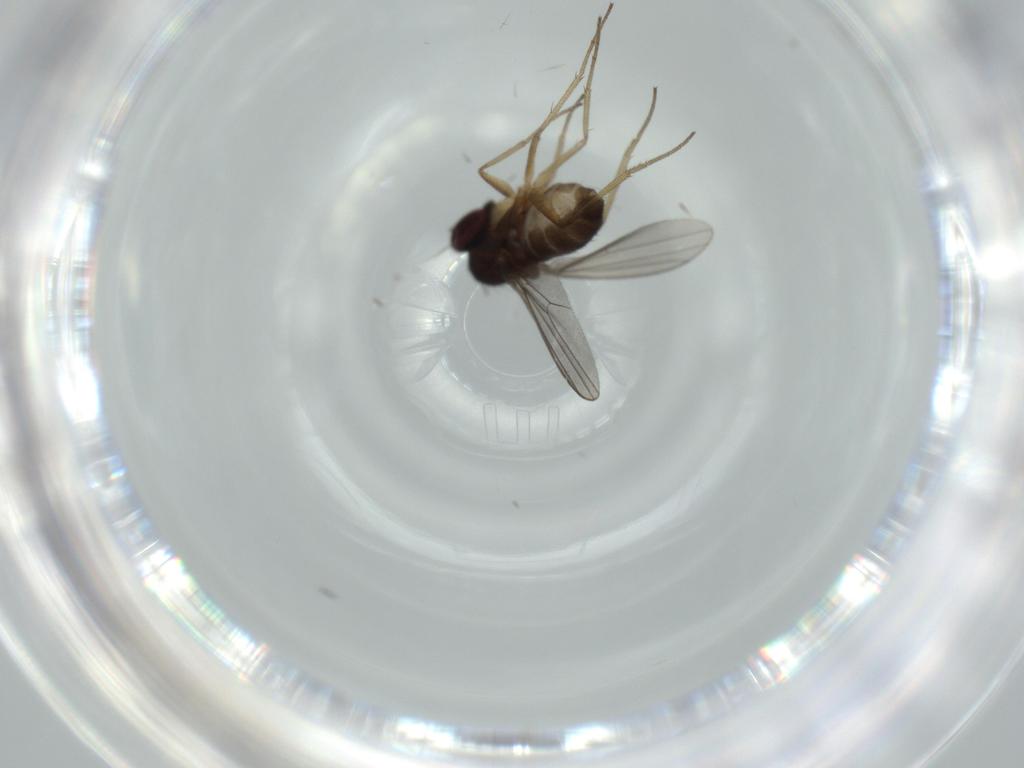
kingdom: Animalia
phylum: Arthropoda
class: Insecta
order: Diptera
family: Dolichopodidae
